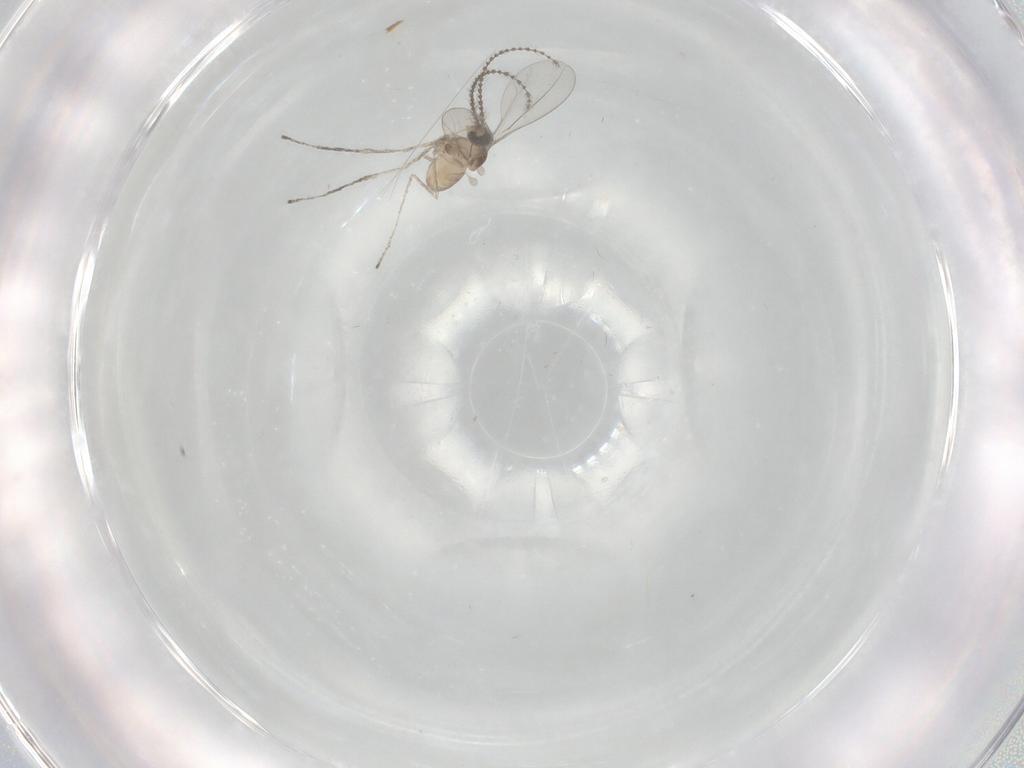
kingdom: Animalia
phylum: Arthropoda
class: Insecta
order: Diptera
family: Cecidomyiidae
